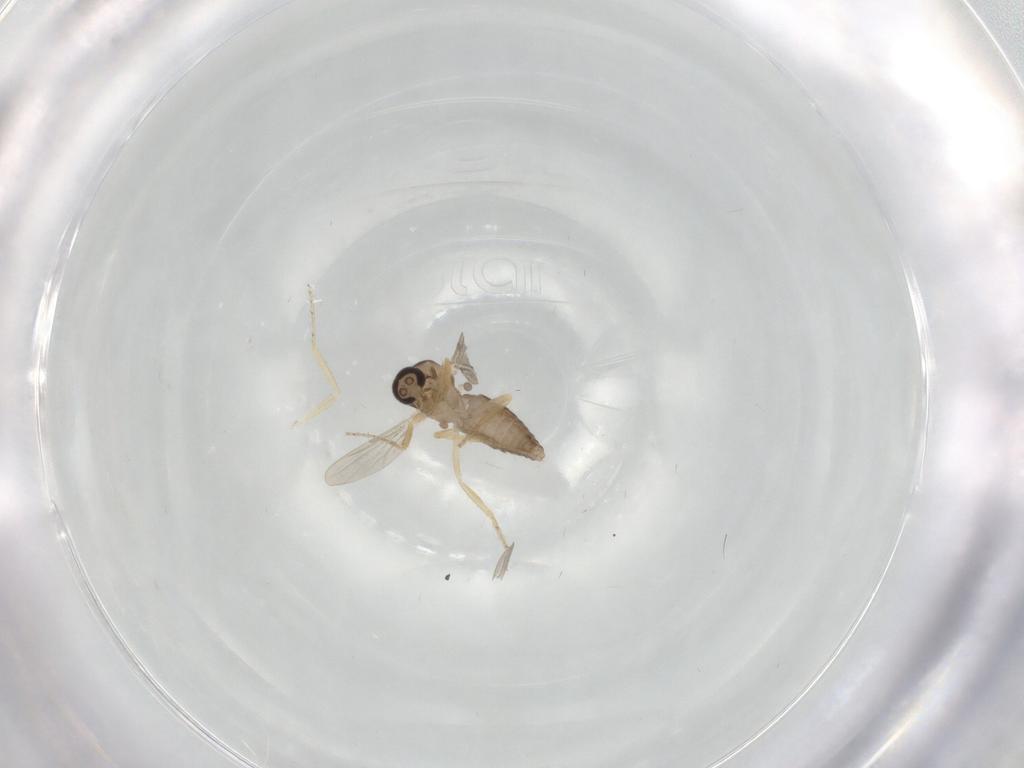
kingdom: Animalia
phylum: Arthropoda
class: Insecta
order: Diptera
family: Ceratopogonidae
